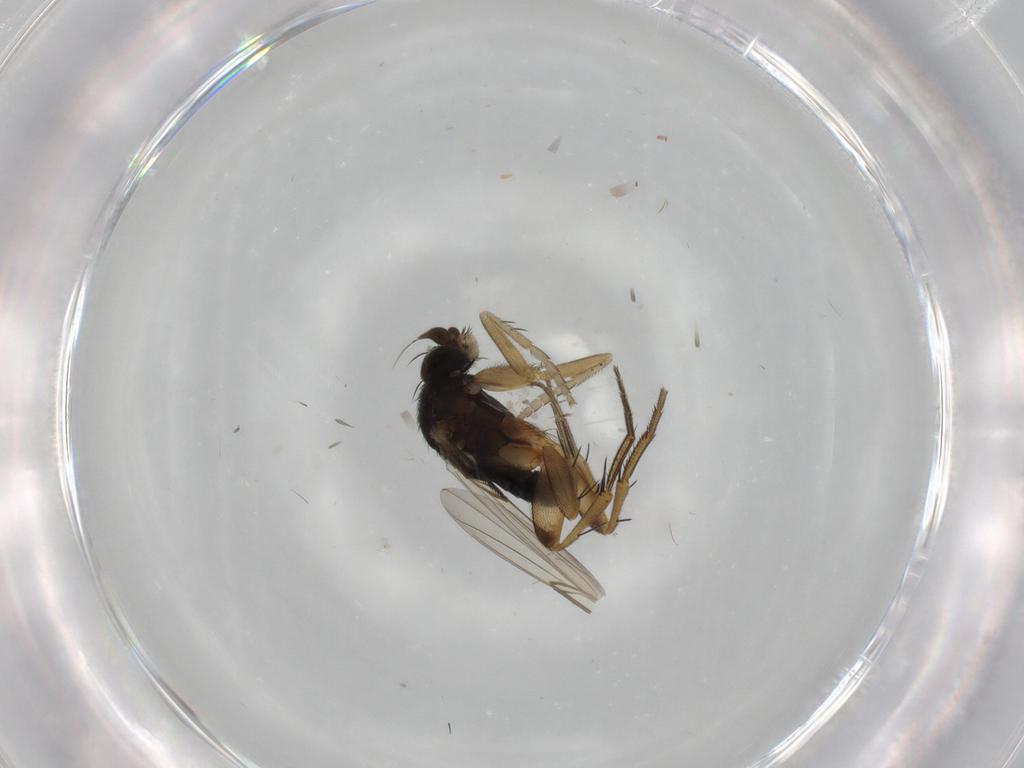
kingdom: Animalia
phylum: Arthropoda
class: Insecta
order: Diptera
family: Phoridae
